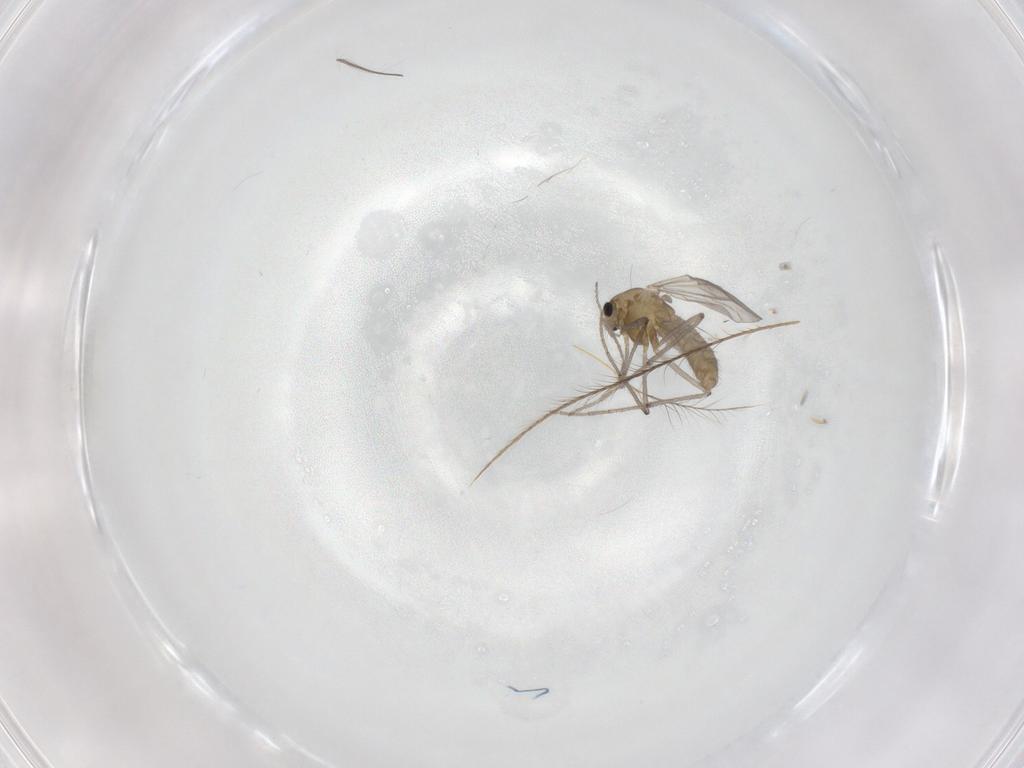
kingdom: Animalia
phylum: Arthropoda
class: Insecta
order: Diptera
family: Chironomidae
